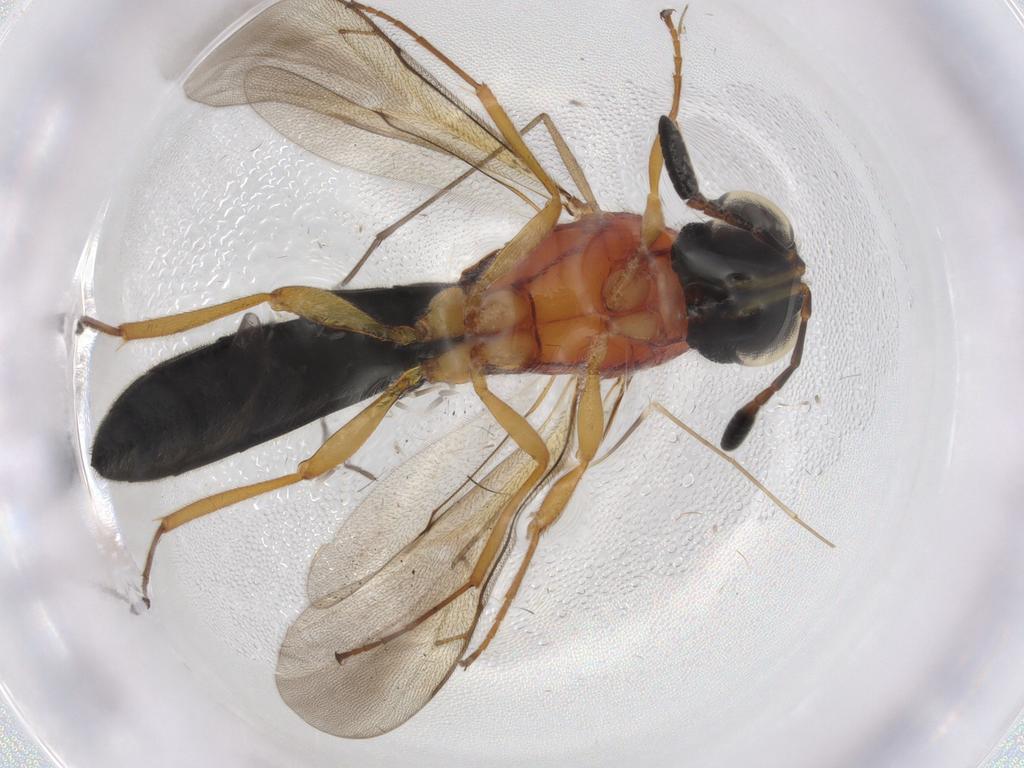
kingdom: Animalia
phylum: Arthropoda
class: Insecta
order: Hymenoptera
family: Scelionidae
